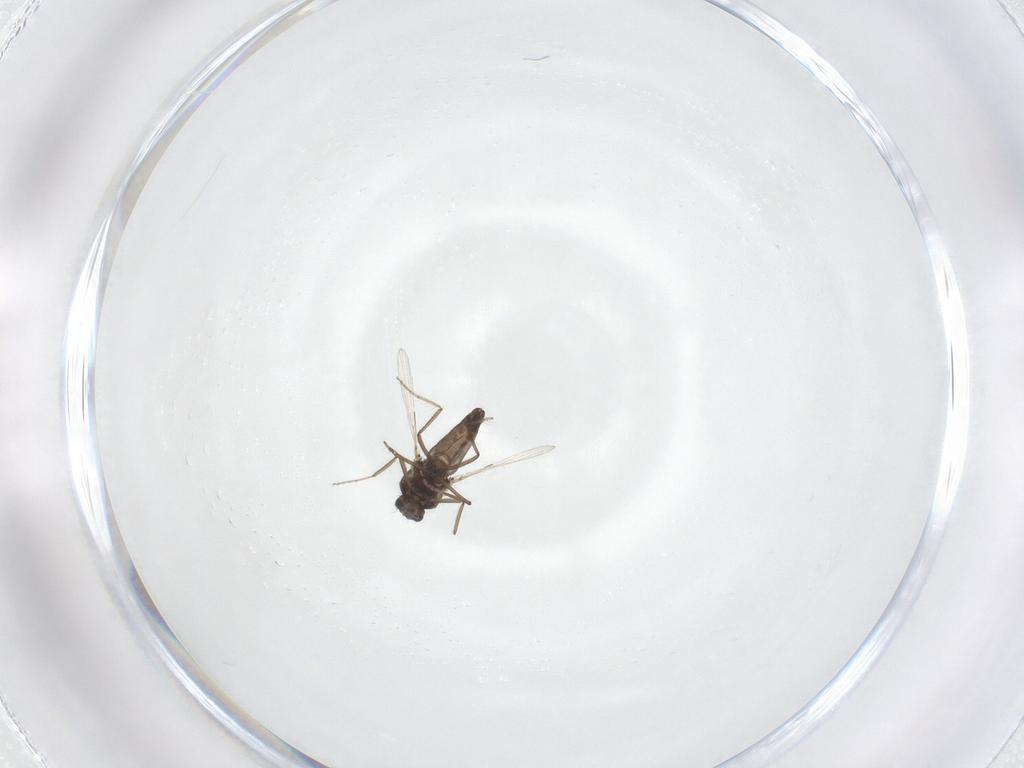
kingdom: Animalia
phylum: Arthropoda
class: Insecta
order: Diptera
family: Ceratopogonidae
